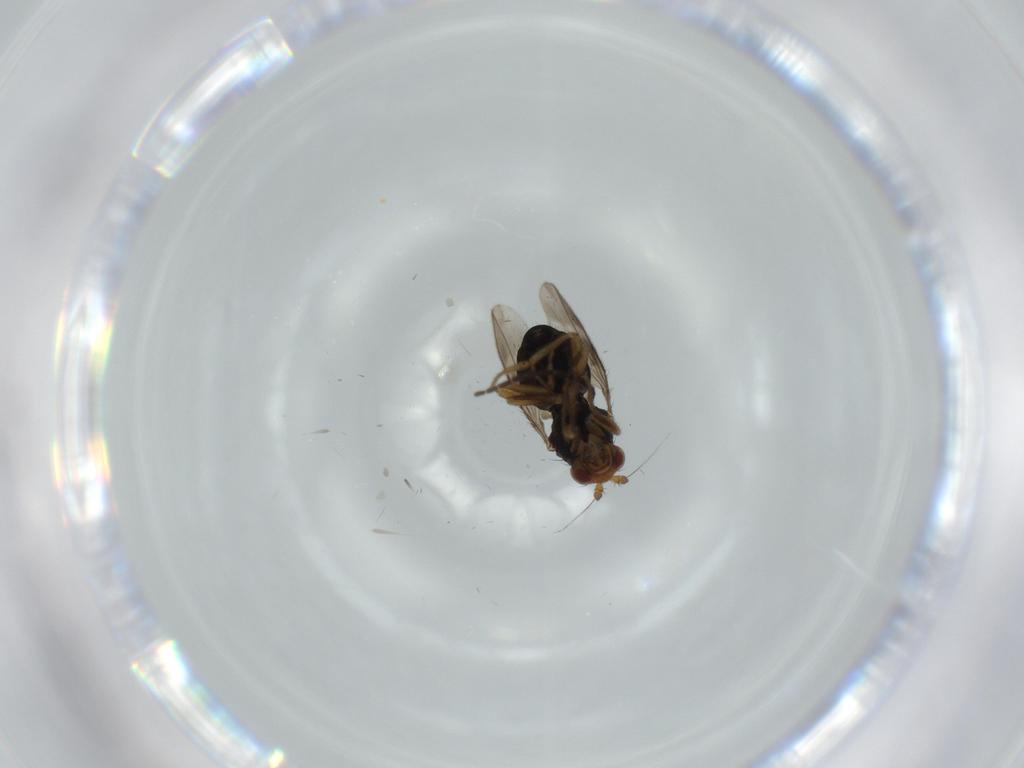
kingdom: Animalia
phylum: Arthropoda
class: Insecta
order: Diptera
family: Sphaeroceridae
